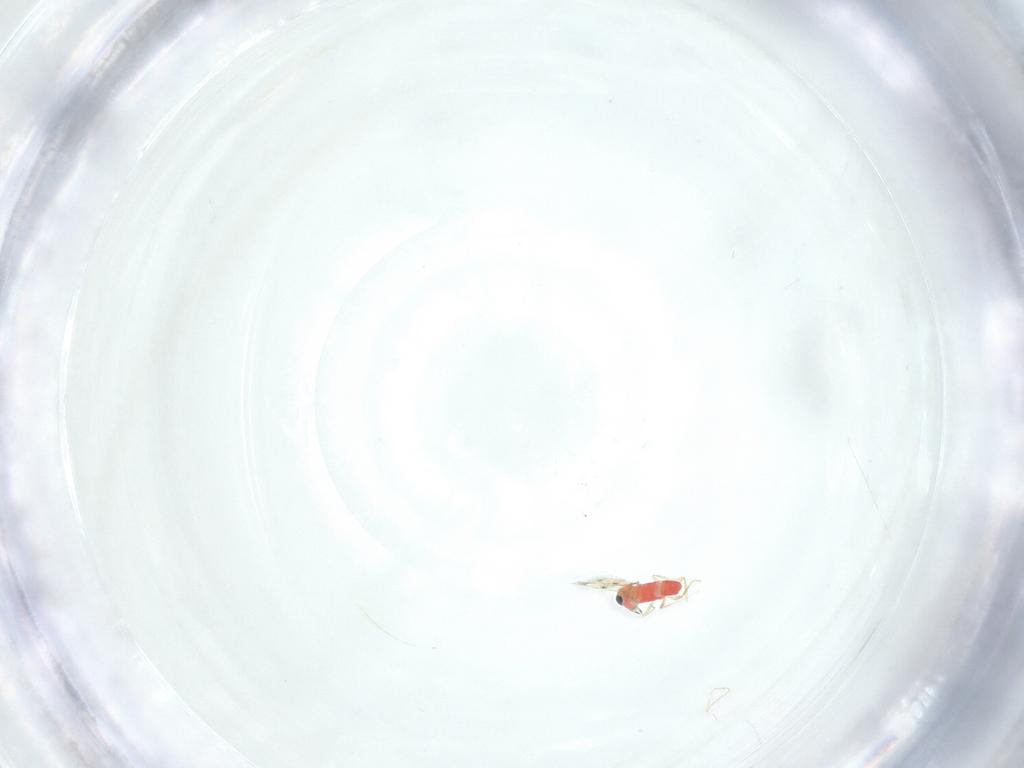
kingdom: Animalia
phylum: Arthropoda
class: Insecta
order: Hymenoptera
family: Trichogrammatidae
